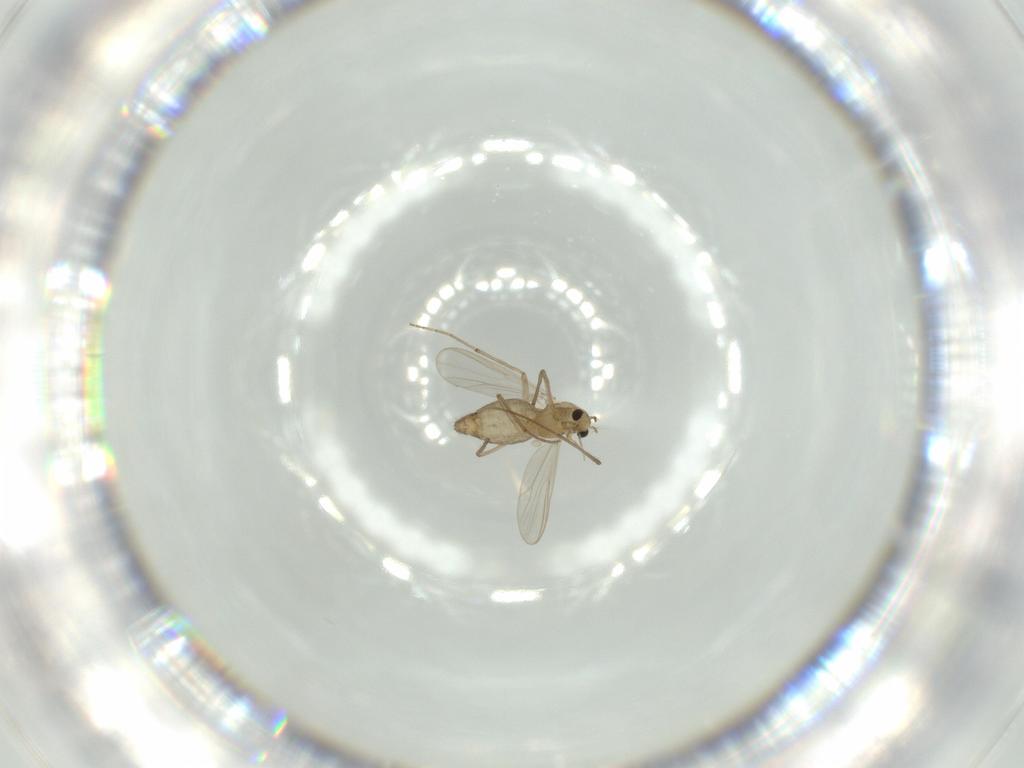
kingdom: Animalia
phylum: Arthropoda
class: Insecta
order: Diptera
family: Chironomidae
